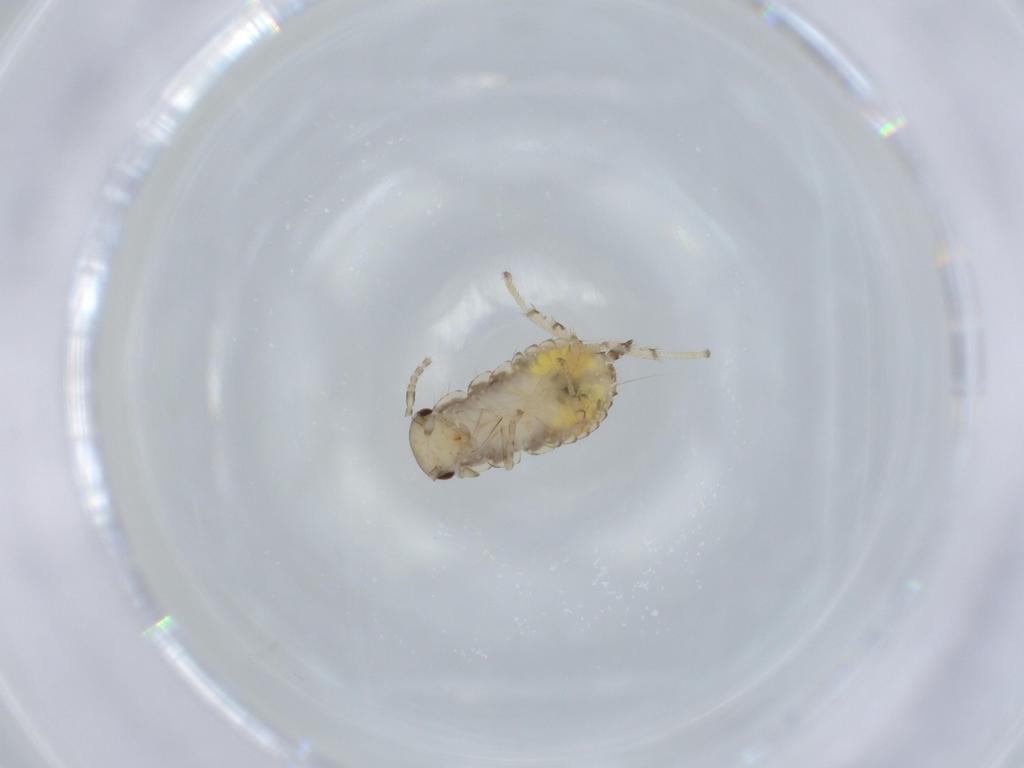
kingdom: Animalia
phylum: Arthropoda
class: Insecta
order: Blattodea
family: Ectobiidae
